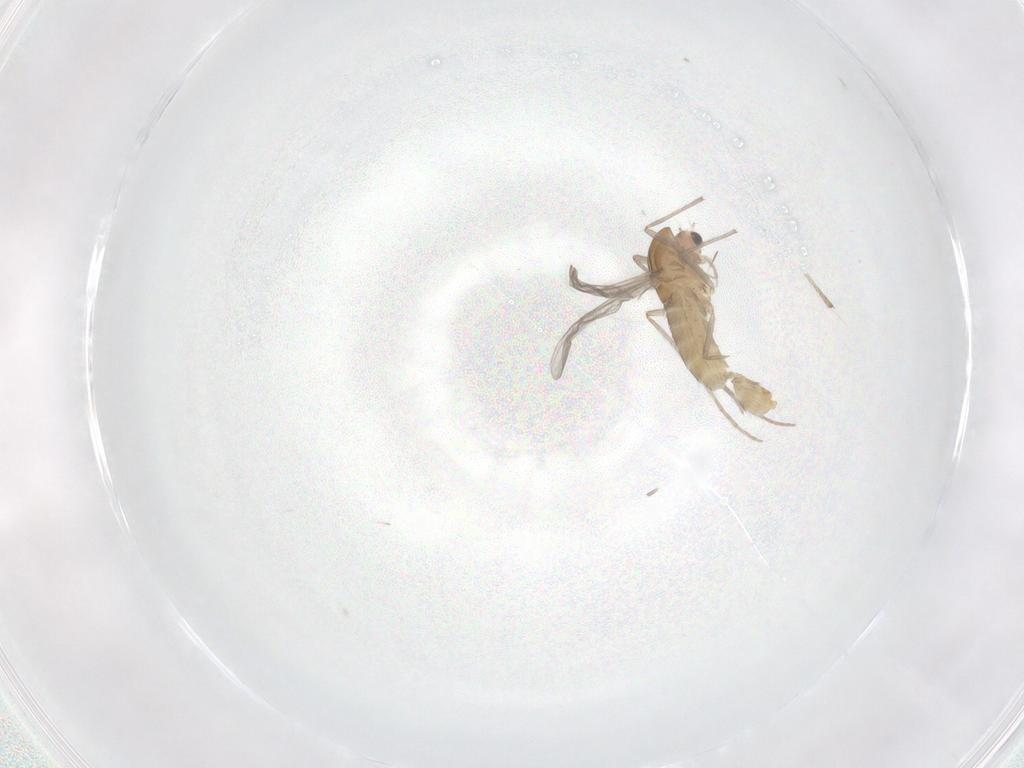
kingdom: Animalia
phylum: Arthropoda
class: Insecta
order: Diptera
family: Chironomidae
